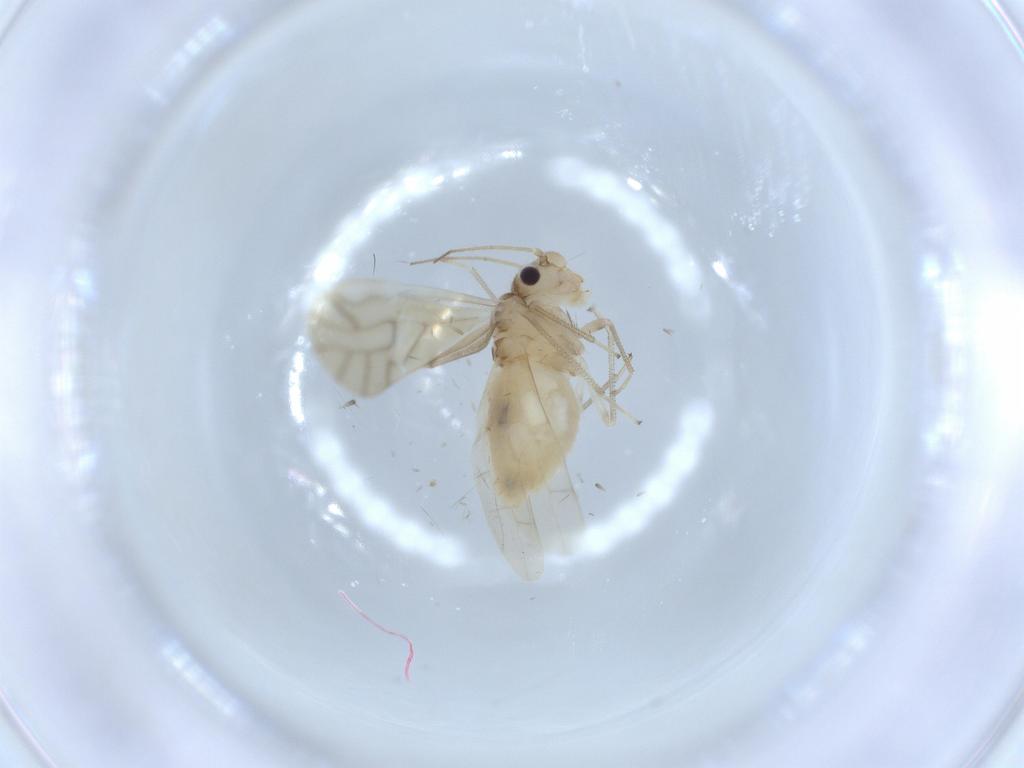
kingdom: Animalia
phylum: Arthropoda
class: Insecta
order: Psocodea
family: Caeciliusidae
